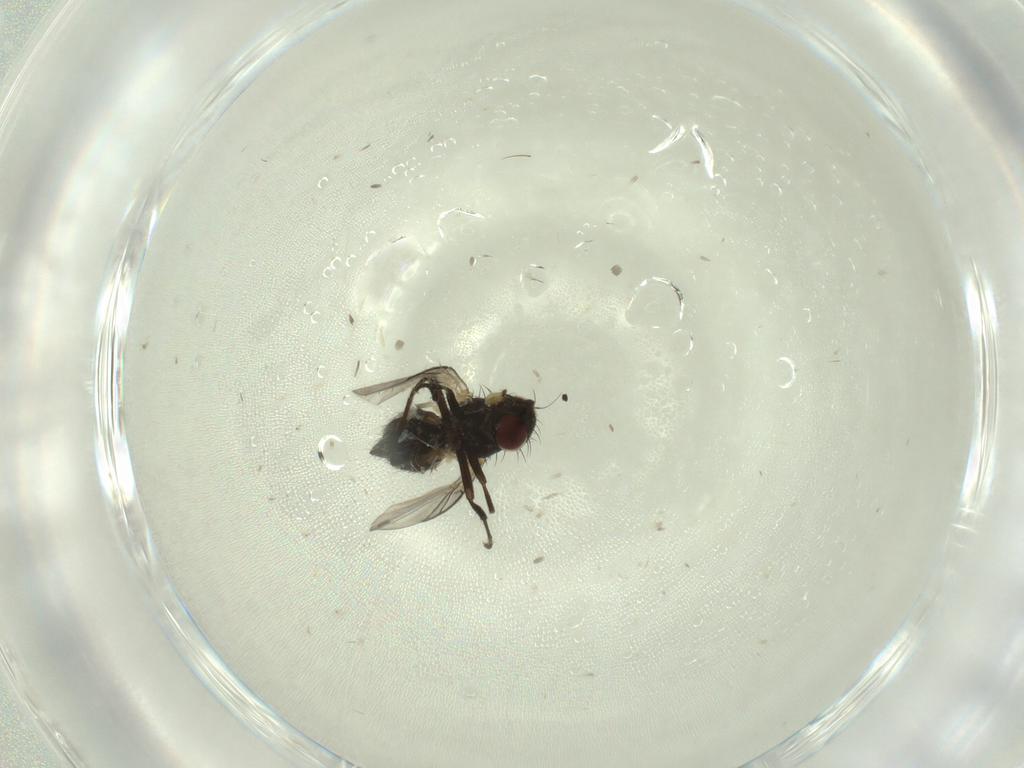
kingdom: Animalia
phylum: Arthropoda
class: Insecta
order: Diptera
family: Ceratopogonidae
